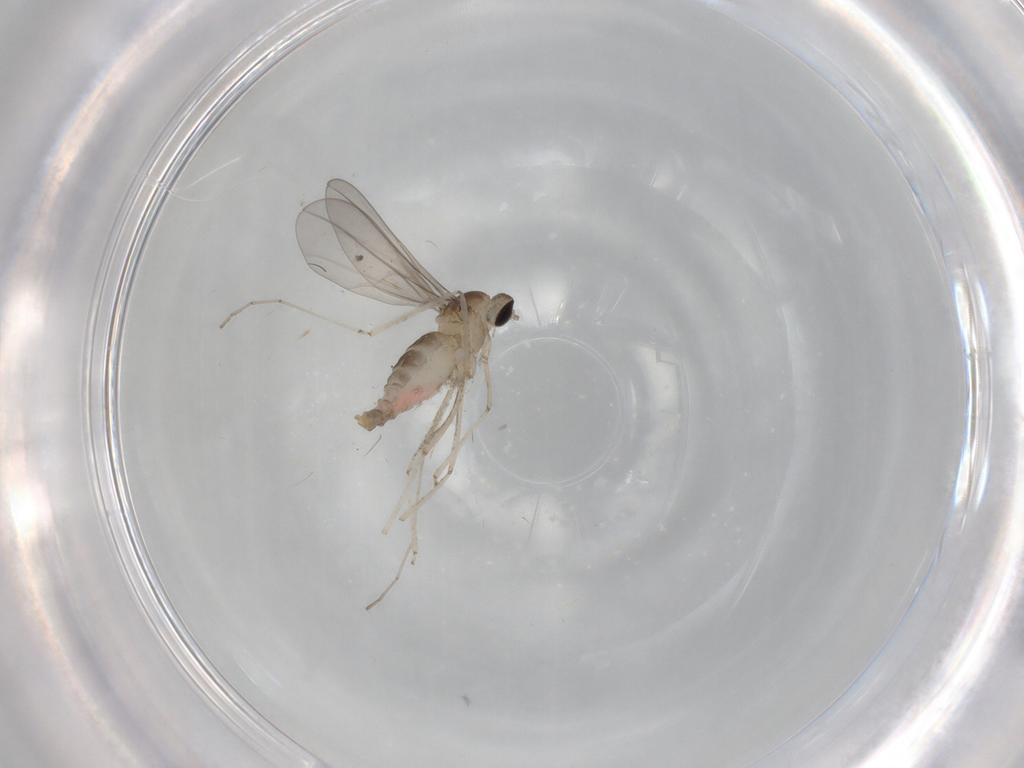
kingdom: Animalia
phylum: Arthropoda
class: Insecta
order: Diptera
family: Cecidomyiidae
